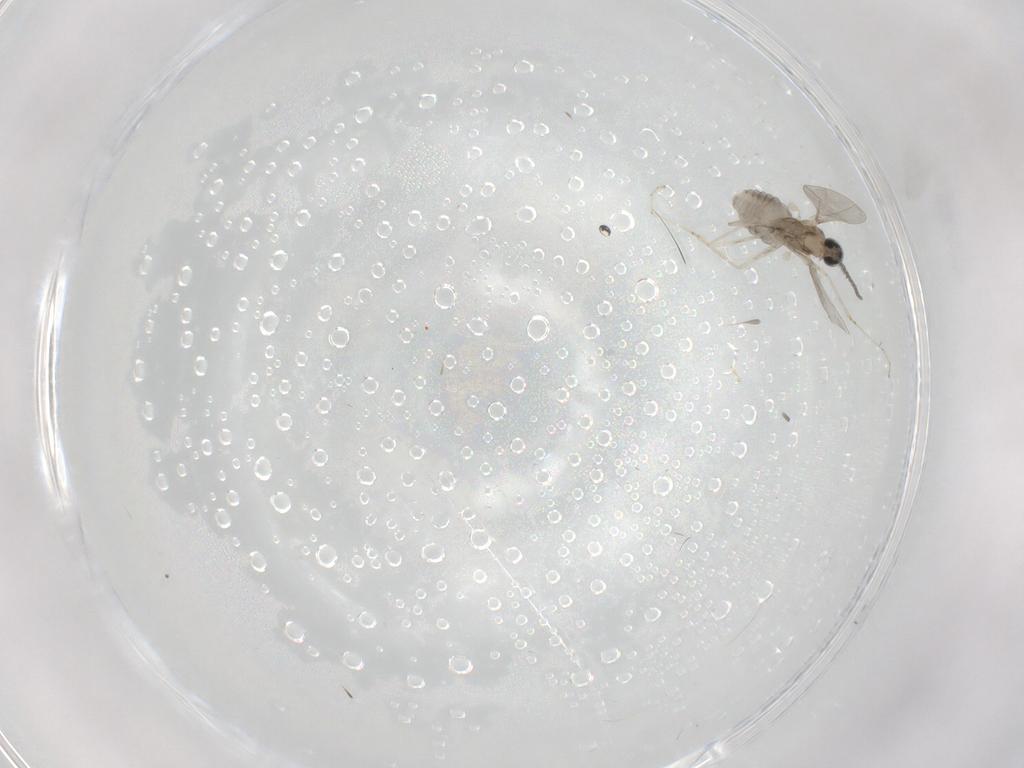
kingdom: Animalia
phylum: Arthropoda
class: Insecta
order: Diptera
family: Cecidomyiidae
